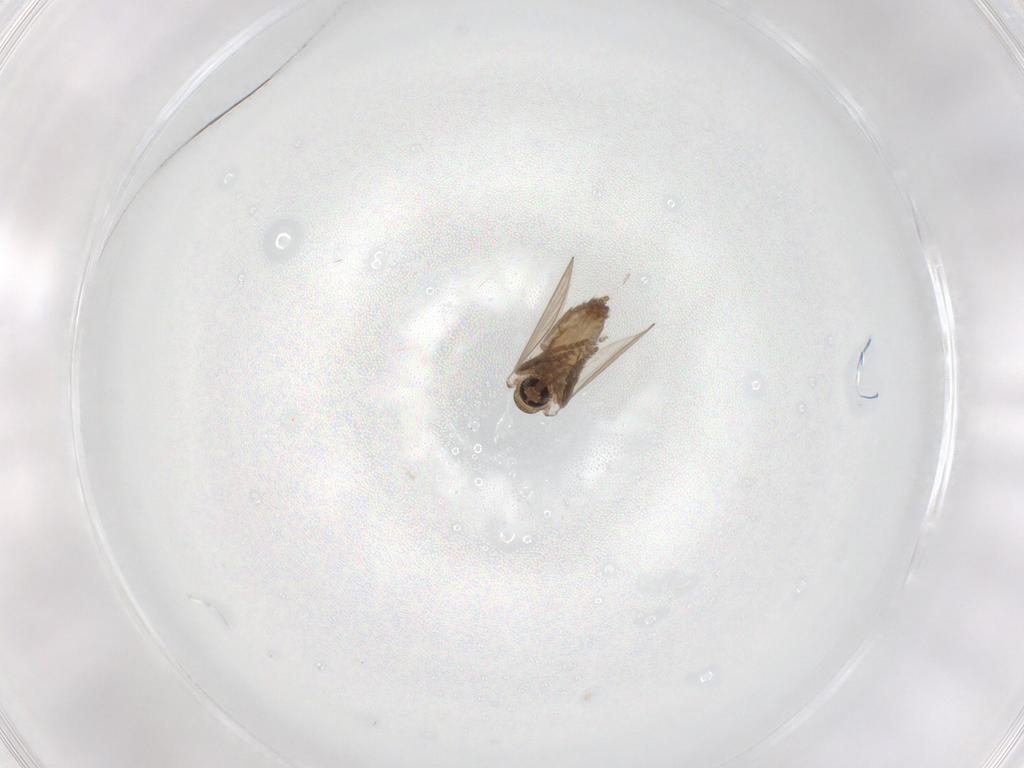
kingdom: Animalia
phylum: Arthropoda
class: Insecta
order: Diptera
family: Psychodidae
